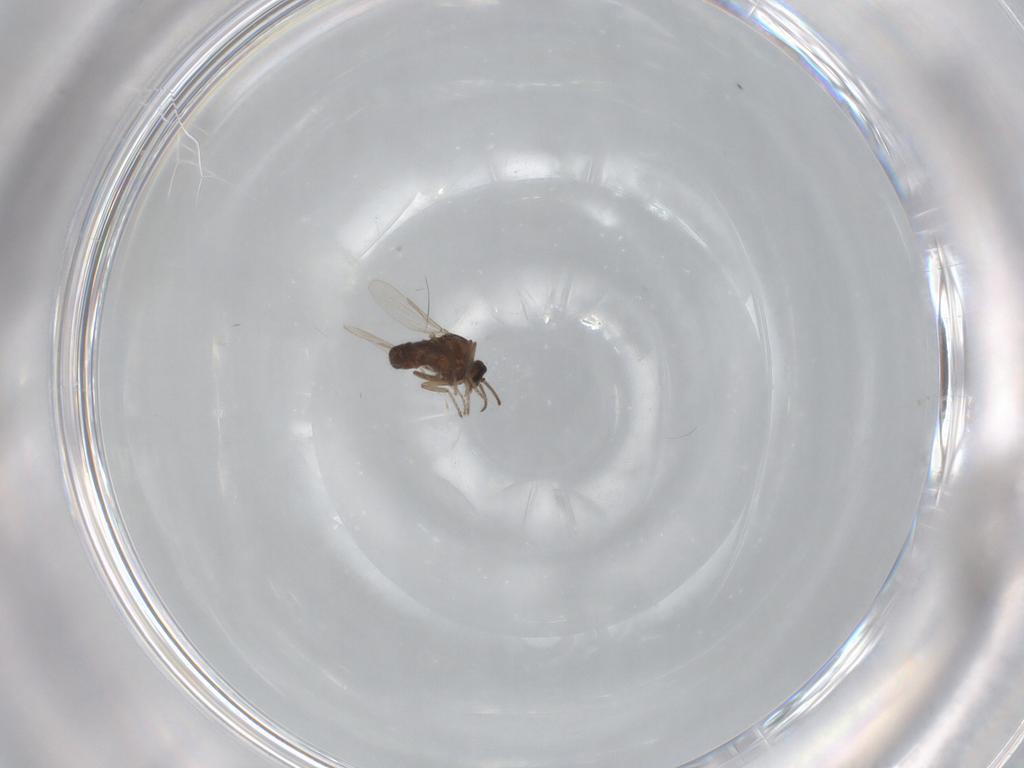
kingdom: Animalia
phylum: Arthropoda
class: Insecta
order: Diptera
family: Ceratopogonidae
